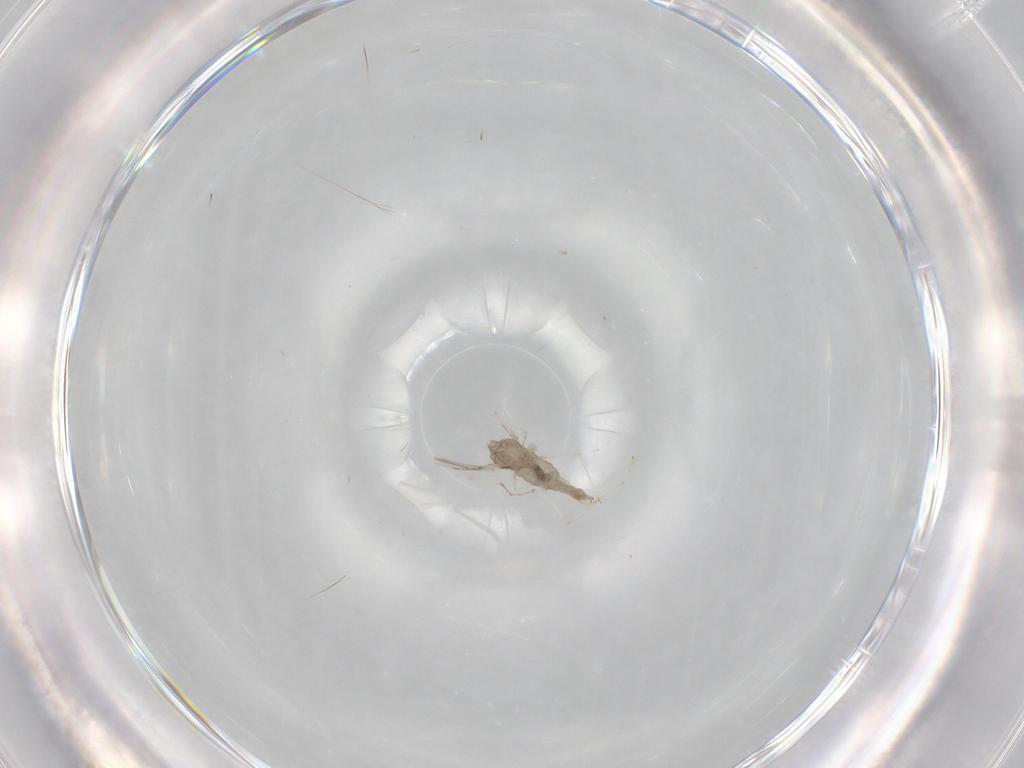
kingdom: Animalia
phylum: Arthropoda
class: Insecta
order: Diptera
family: Cecidomyiidae
